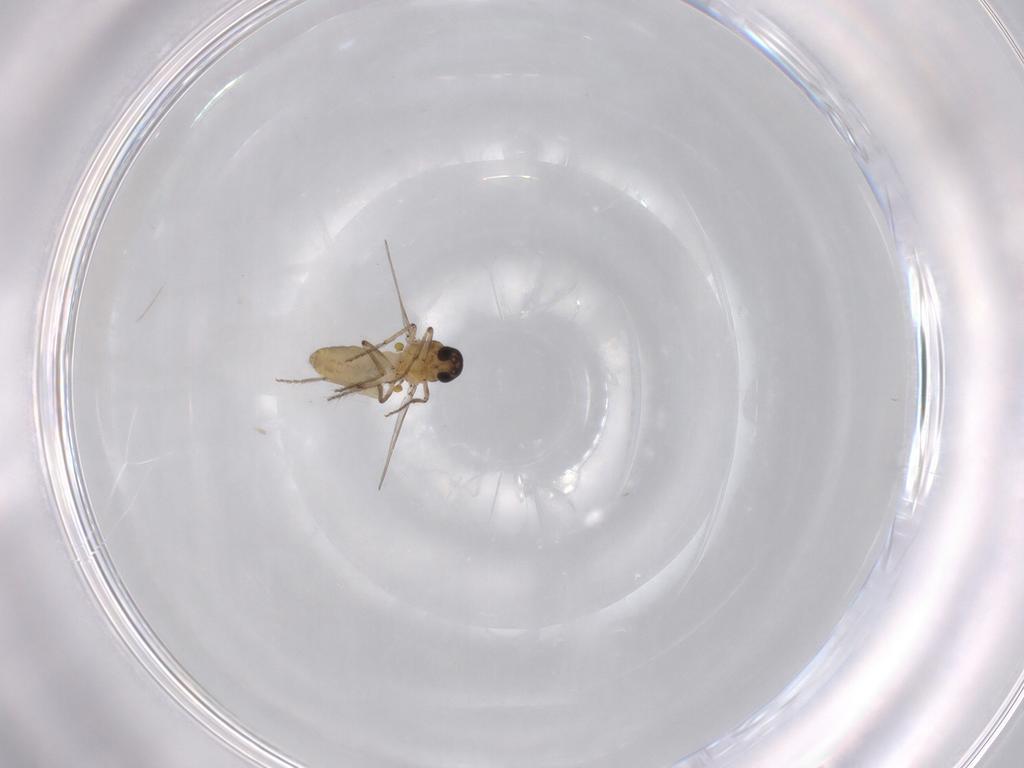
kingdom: Animalia
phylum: Arthropoda
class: Insecta
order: Diptera
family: Ceratopogonidae
